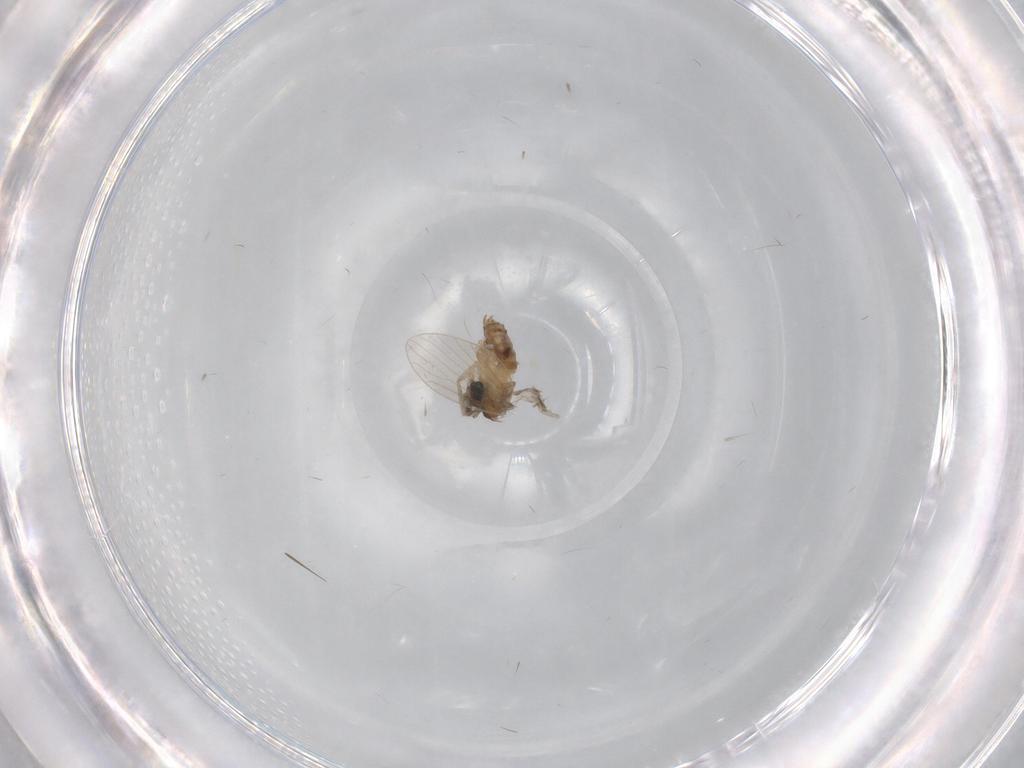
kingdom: Animalia
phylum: Arthropoda
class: Insecta
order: Diptera
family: Psychodidae
